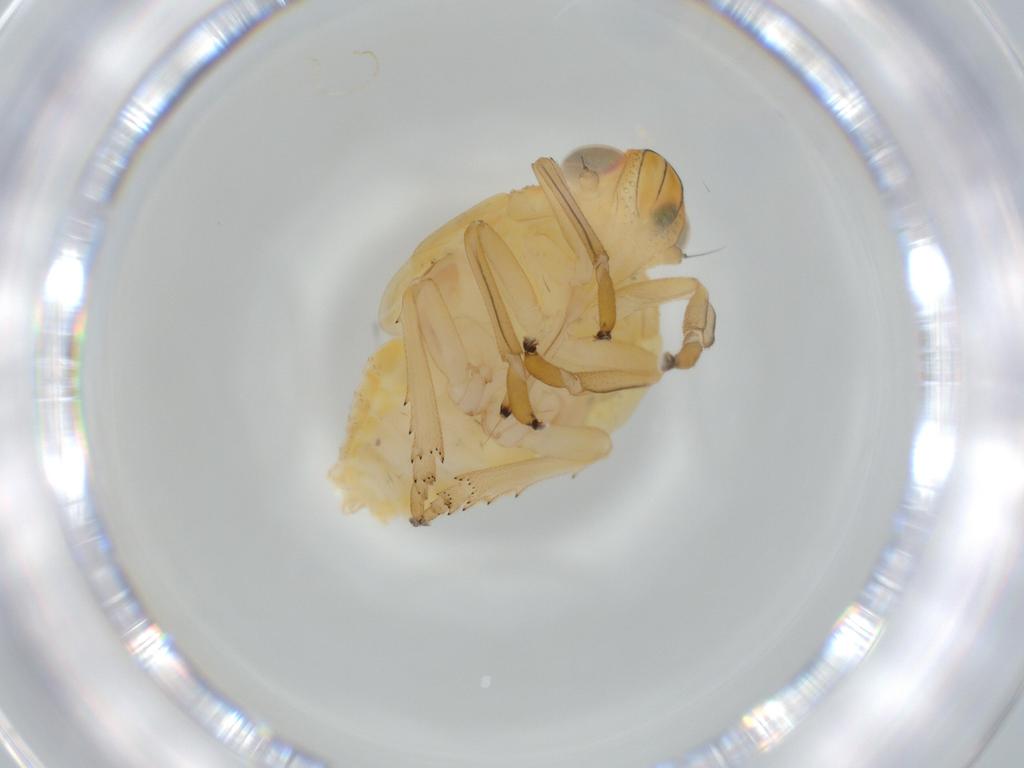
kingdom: Animalia
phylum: Arthropoda
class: Insecta
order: Hemiptera
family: Issidae
